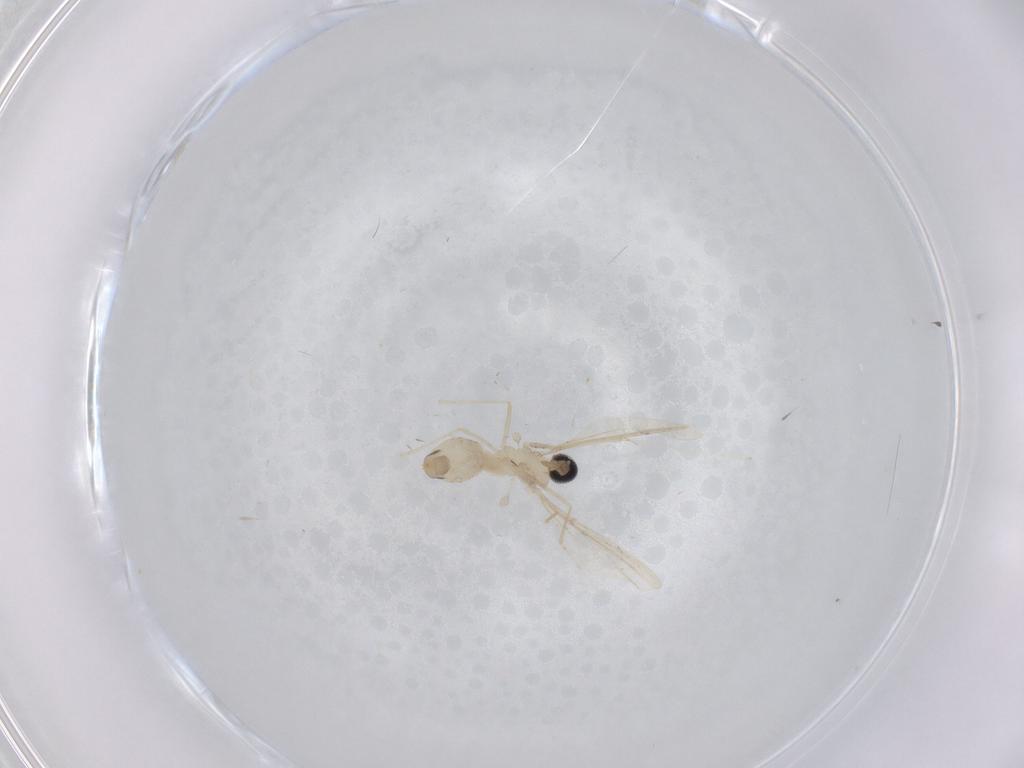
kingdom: Animalia
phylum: Arthropoda
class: Insecta
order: Diptera
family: Cecidomyiidae
